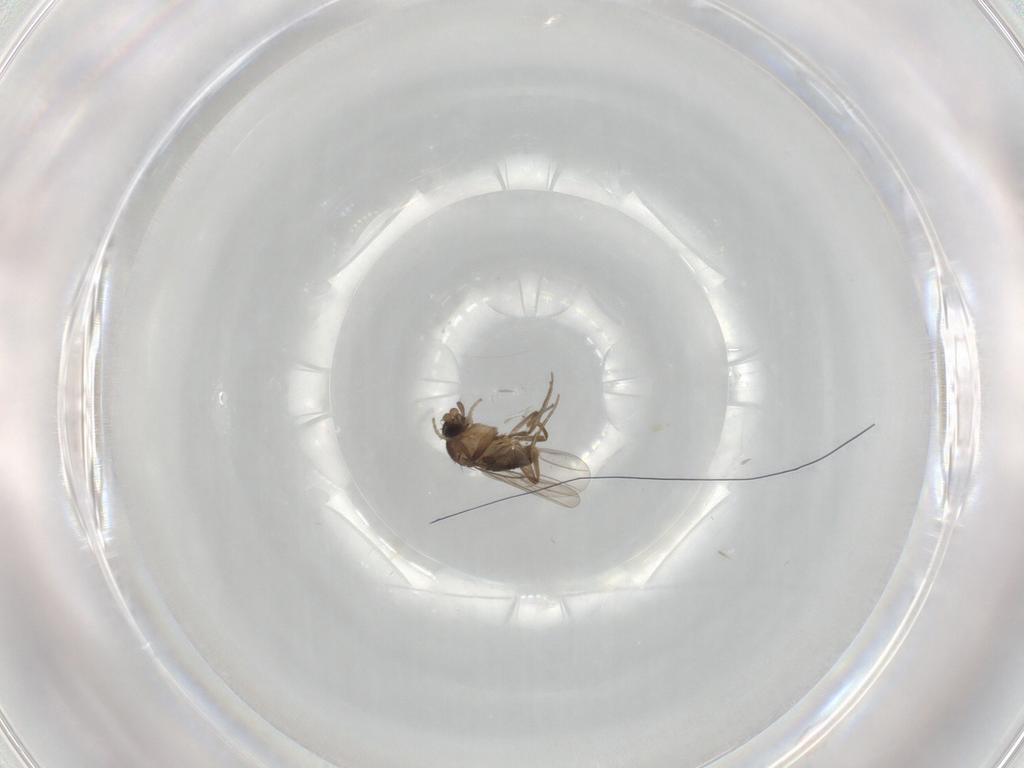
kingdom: Animalia
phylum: Arthropoda
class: Insecta
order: Diptera
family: Phoridae
